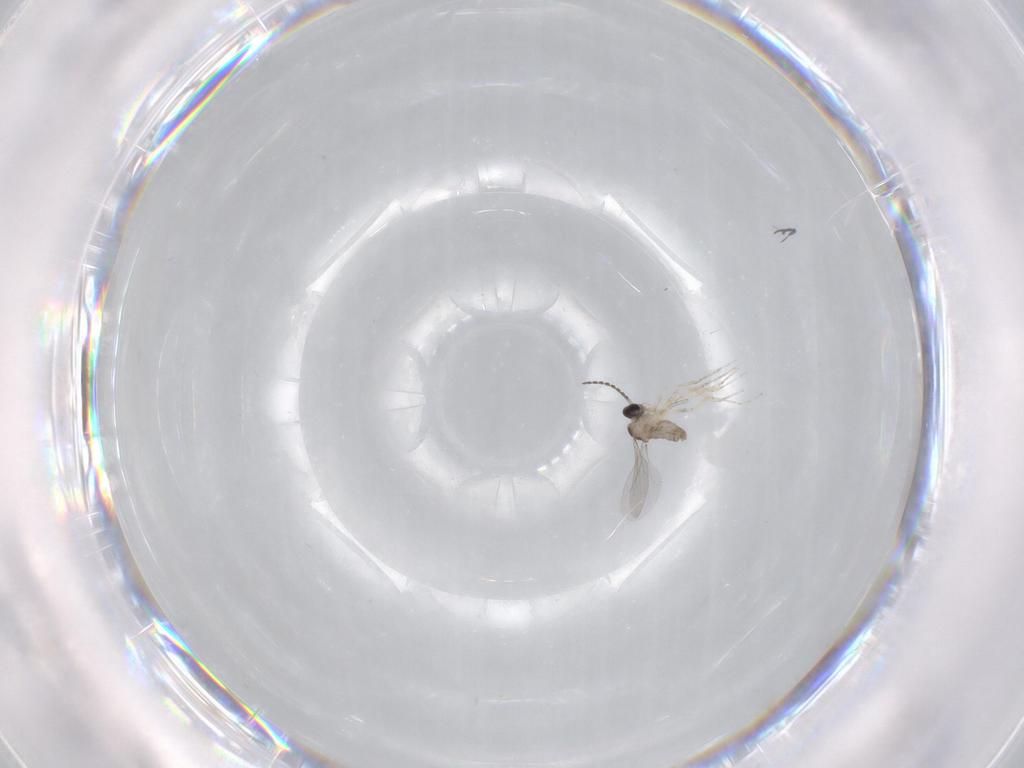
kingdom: Animalia
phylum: Arthropoda
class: Insecta
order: Diptera
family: Cecidomyiidae
